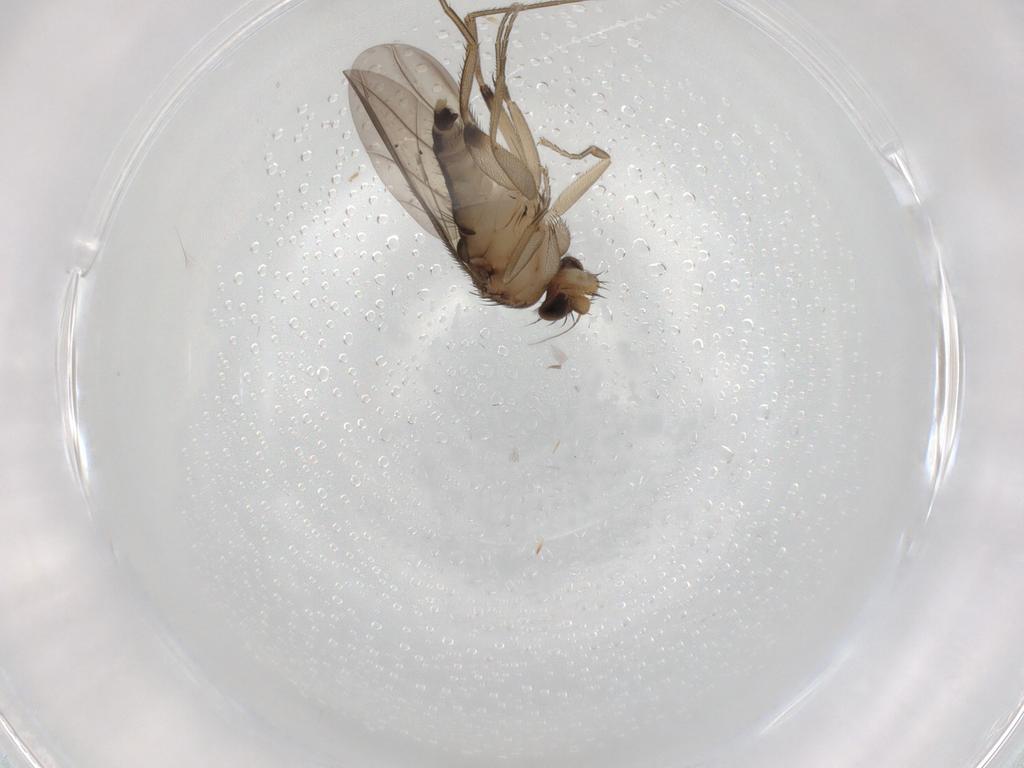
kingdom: Animalia
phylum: Arthropoda
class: Insecta
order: Diptera
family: Phoridae
